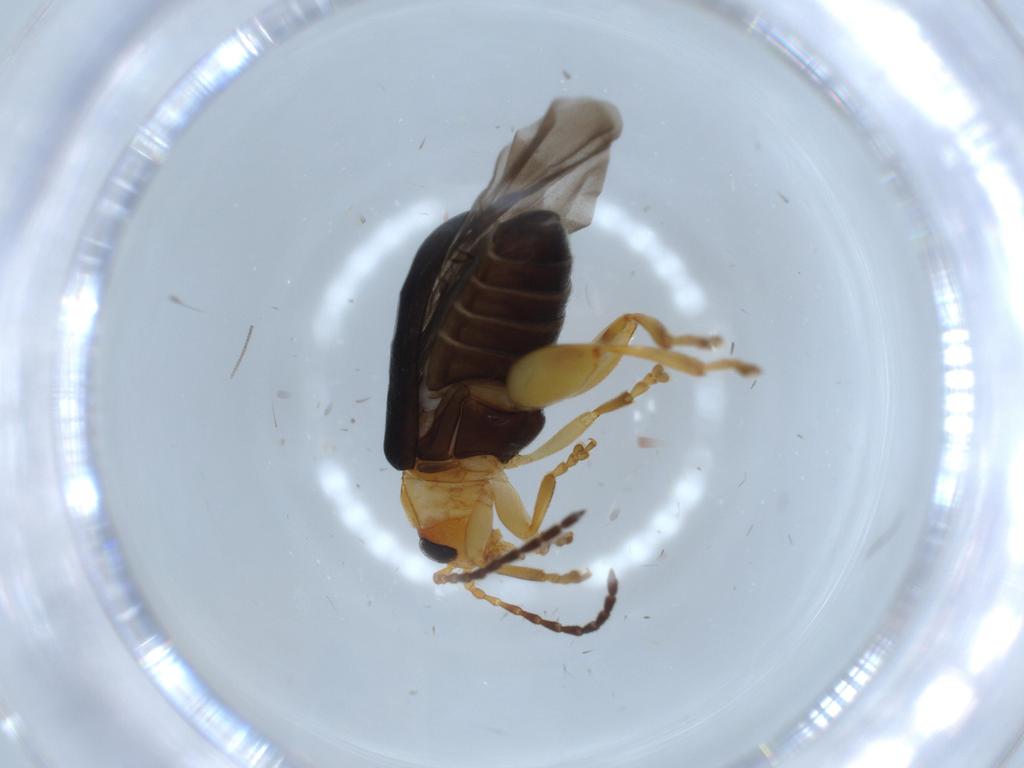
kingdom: Animalia
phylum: Arthropoda
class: Insecta
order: Coleoptera
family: Chrysomelidae
